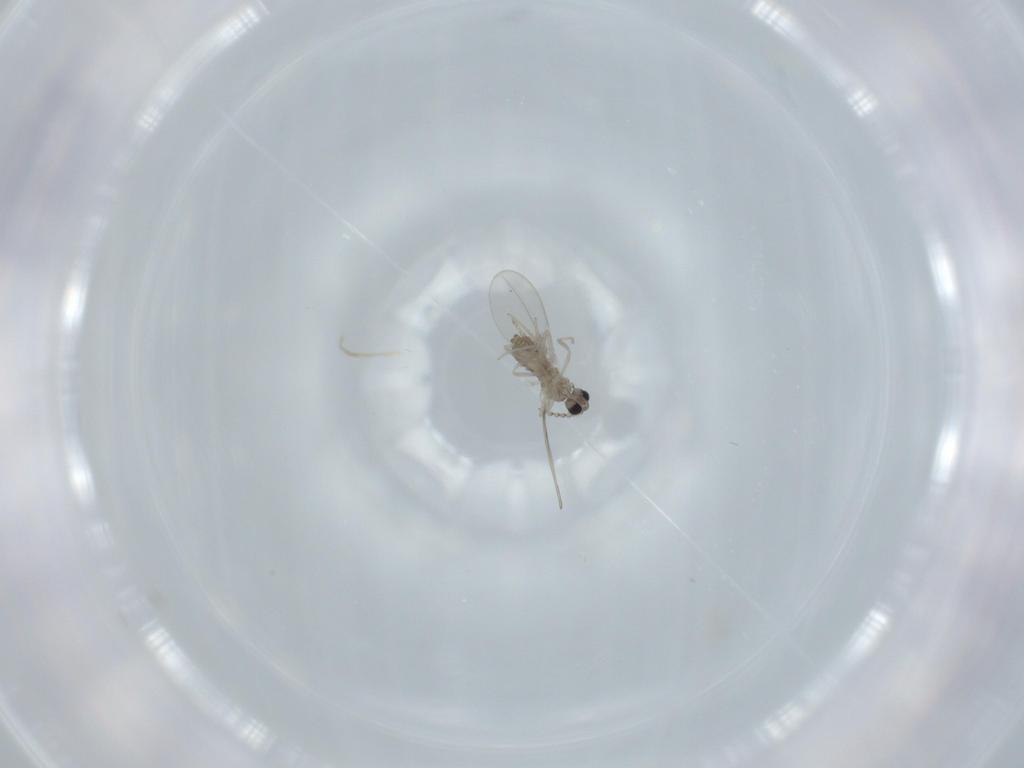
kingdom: Animalia
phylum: Arthropoda
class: Insecta
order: Diptera
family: Cecidomyiidae
